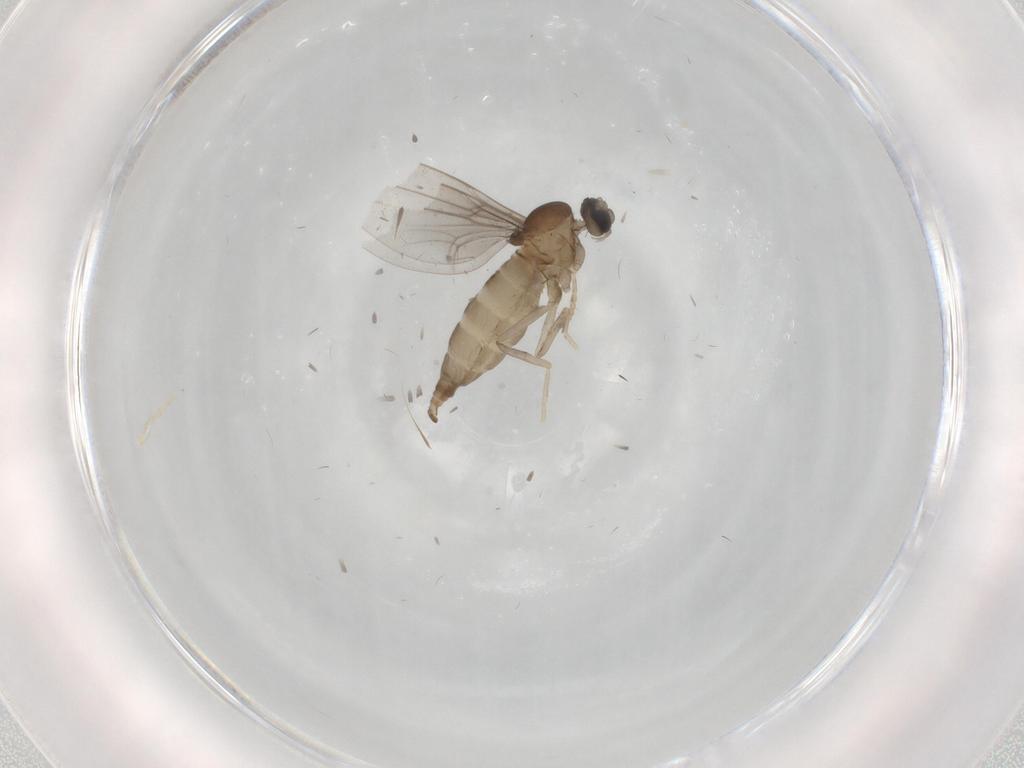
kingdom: Animalia
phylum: Arthropoda
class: Insecta
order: Diptera
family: Cecidomyiidae
